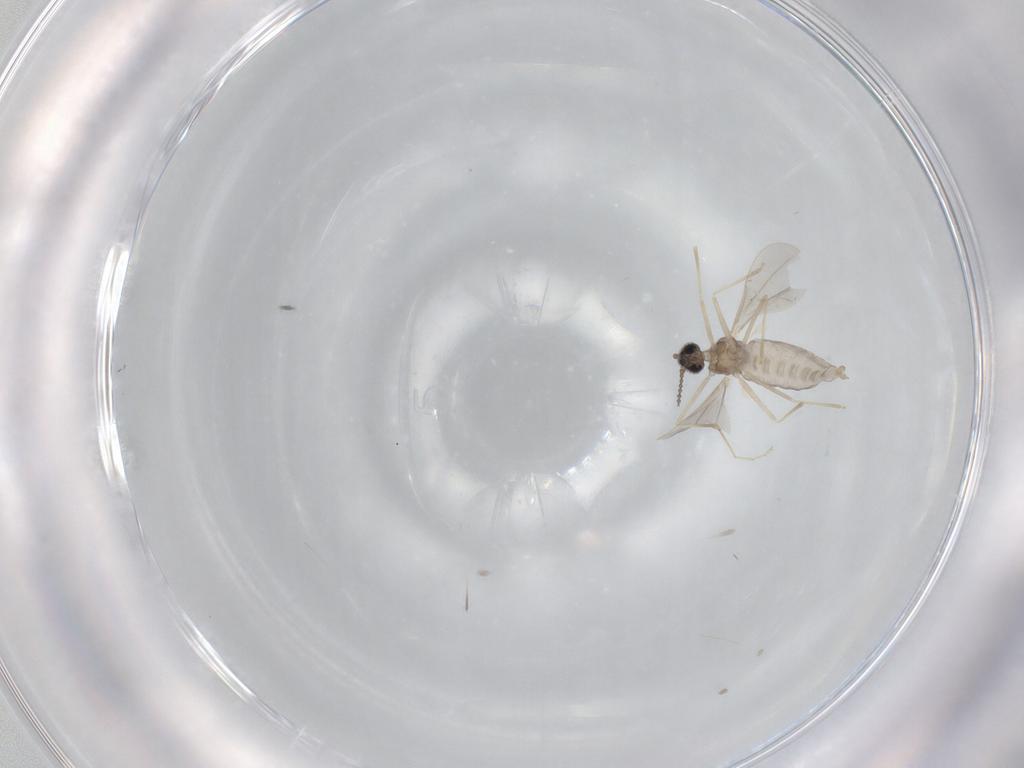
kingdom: Animalia
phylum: Arthropoda
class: Insecta
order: Diptera
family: Cecidomyiidae
